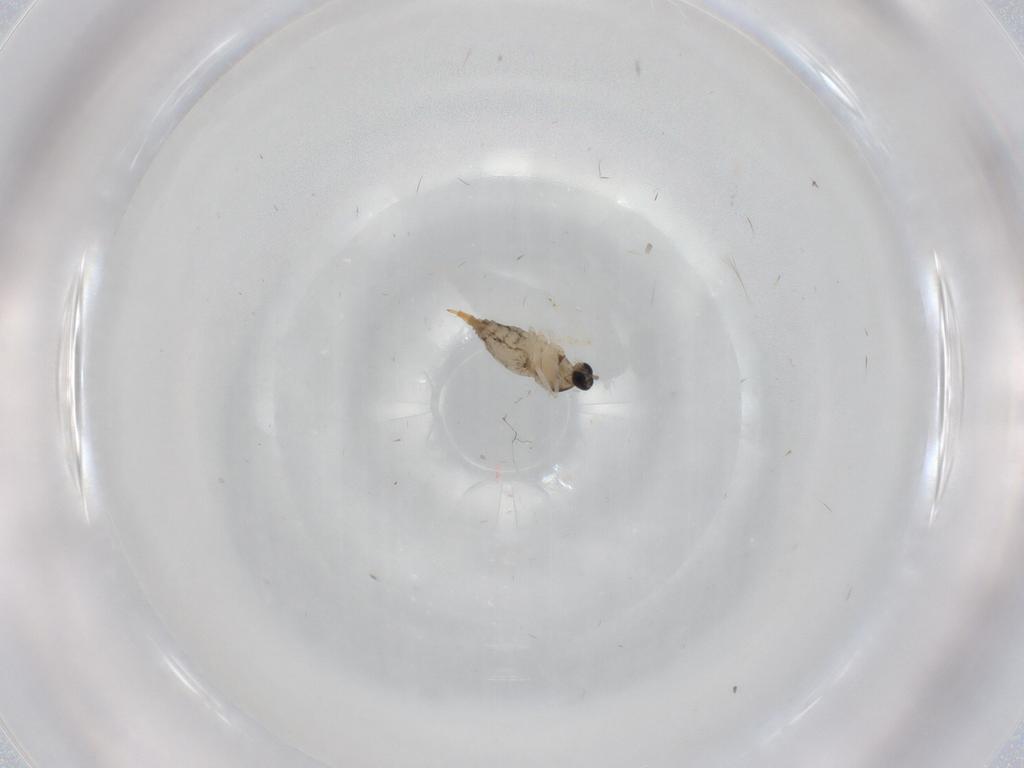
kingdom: Animalia
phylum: Arthropoda
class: Insecta
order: Diptera
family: Cecidomyiidae
